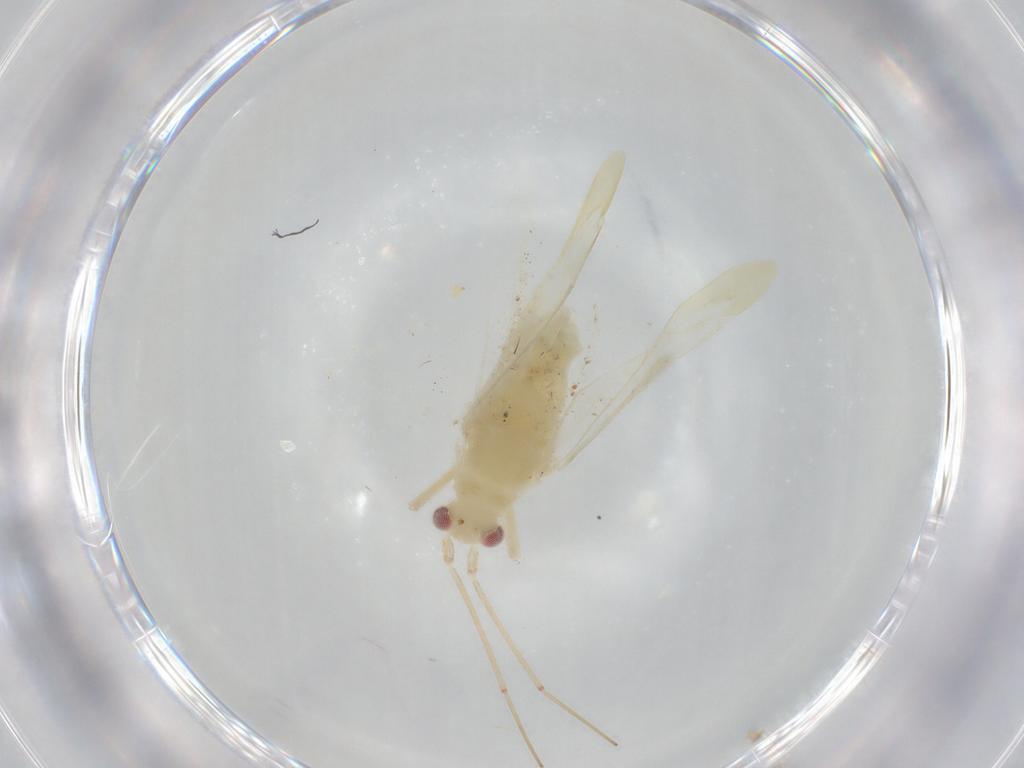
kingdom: Animalia
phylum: Arthropoda
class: Insecta
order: Hemiptera
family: Miridae
